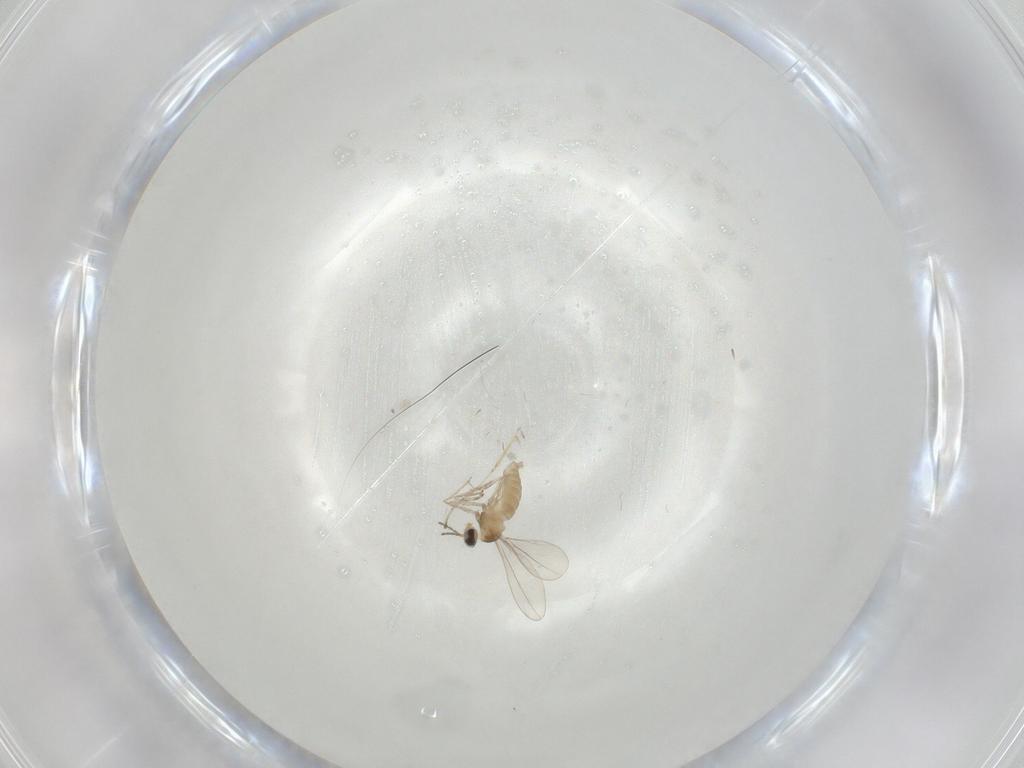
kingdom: Animalia
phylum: Arthropoda
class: Insecta
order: Diptera
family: Cecidomyiidae
